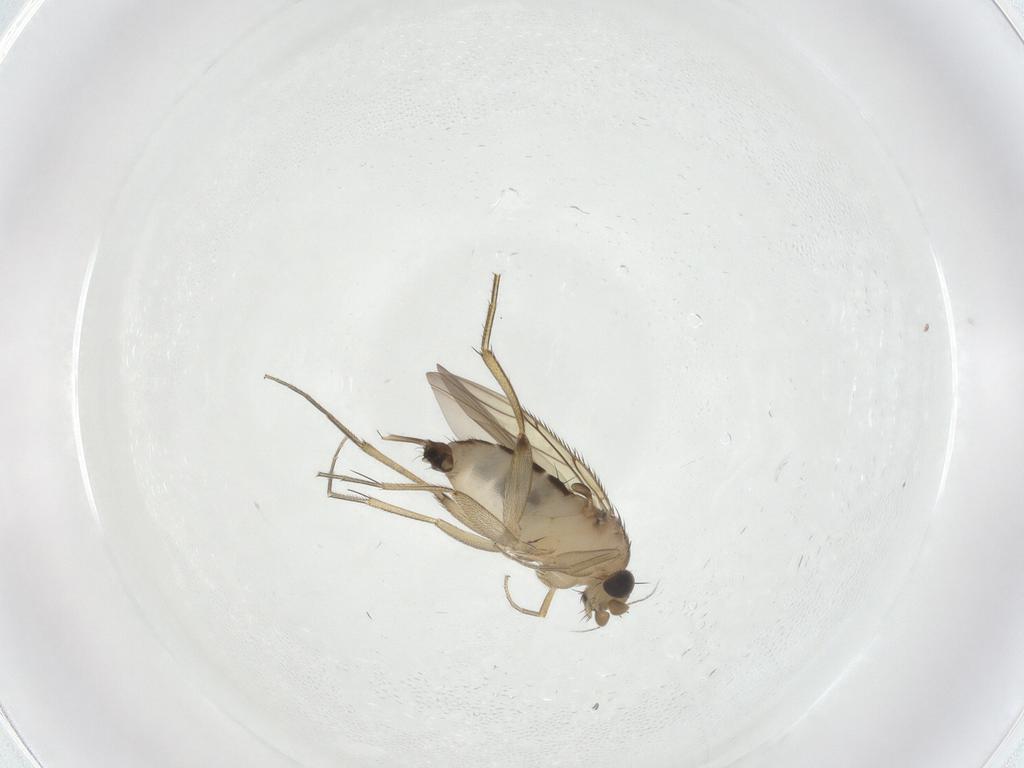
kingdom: Animalia
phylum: Arthropoda
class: Insecta
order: Diptera
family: Phoridae
